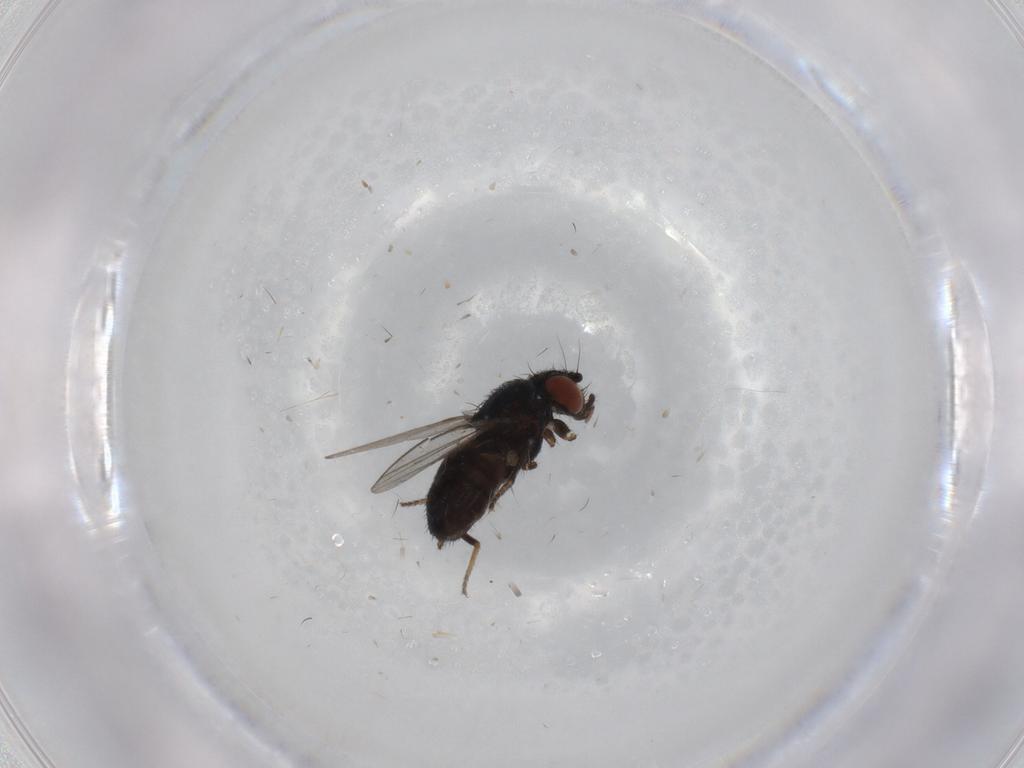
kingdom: Animalia
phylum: Arthropoda
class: Insecta
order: Diptera
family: Milichiidae
